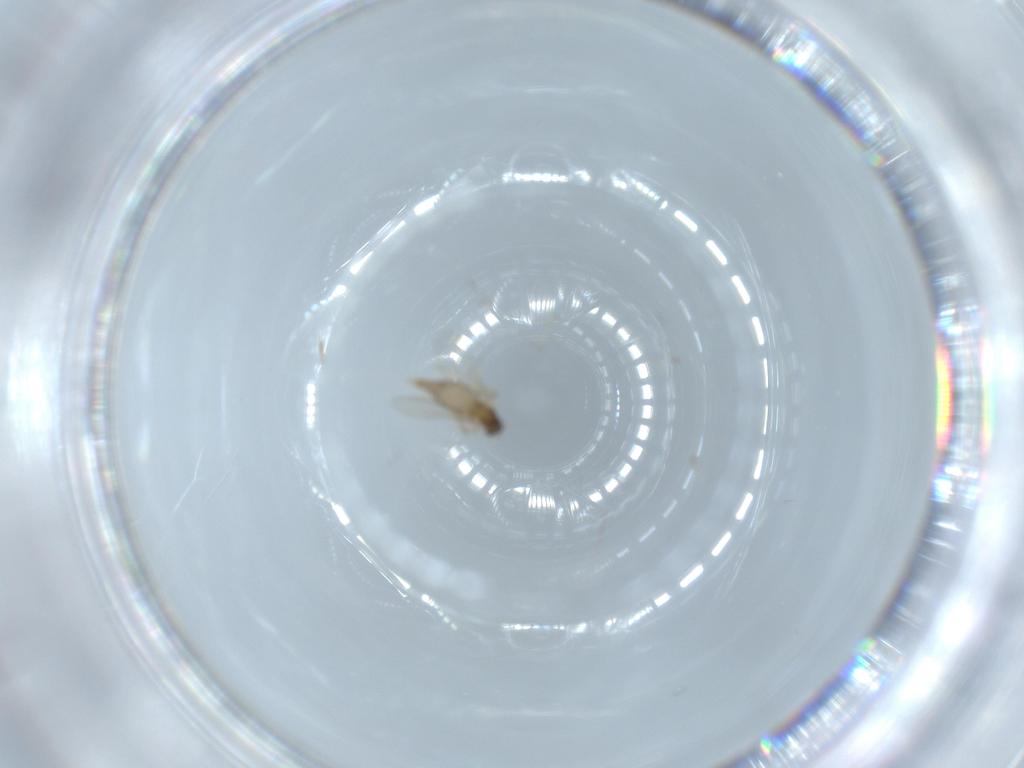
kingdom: Animalia
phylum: Arthropoda
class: Insecta
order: Diptera
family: Cecidomyiidae
